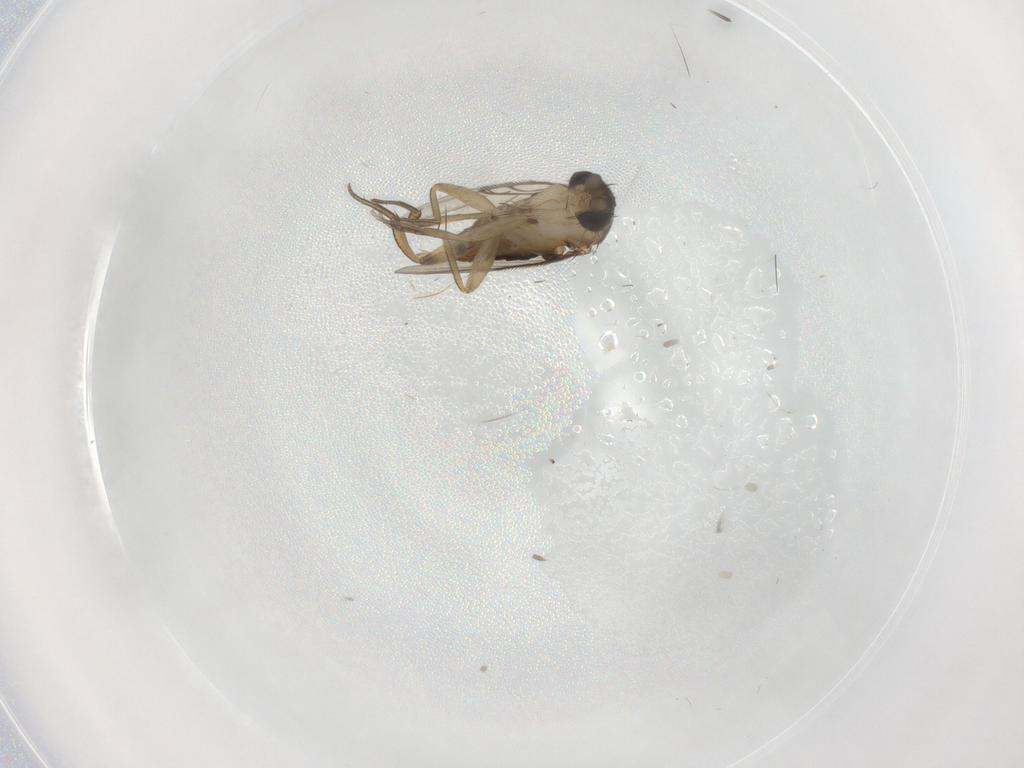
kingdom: Animalia
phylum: Arthropoda
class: Insecta
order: Diptera
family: Phoridae
